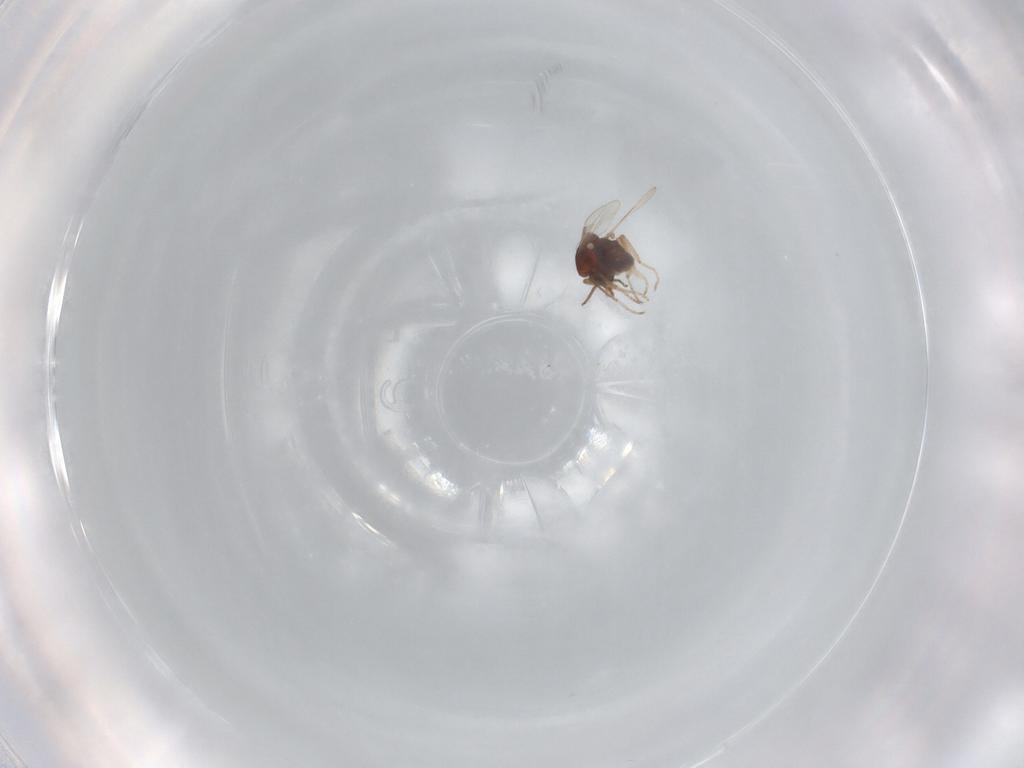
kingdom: Animalia
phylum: Arthropoda
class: Insecta
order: Diptera
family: Ceratopogonidae
